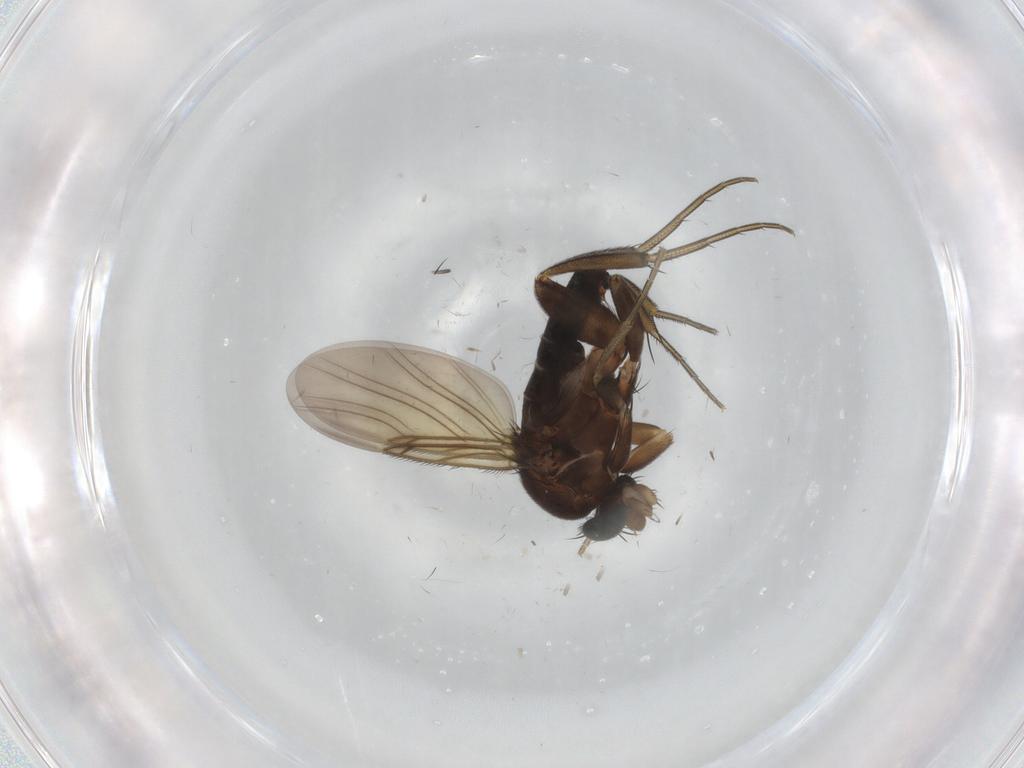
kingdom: Animalia
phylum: Arthropoda
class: Insecta
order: Diptera
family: Phoridae
